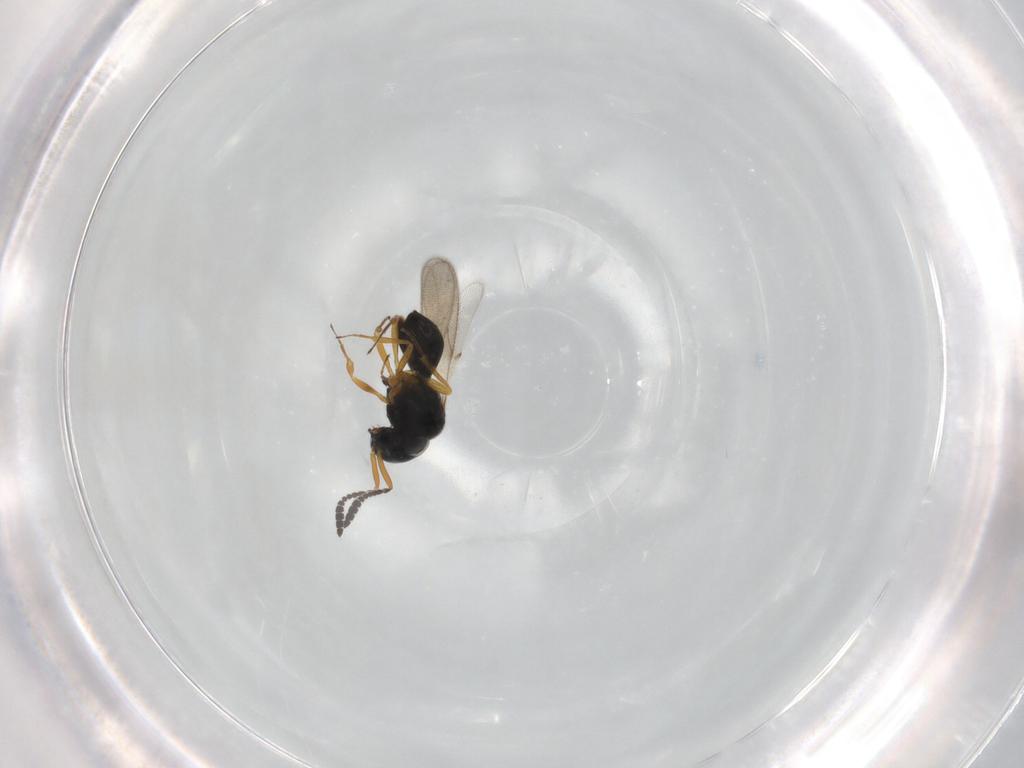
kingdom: Animalia
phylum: Arthropoda
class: Insecta
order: Hymenoptera
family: Scelionidae
